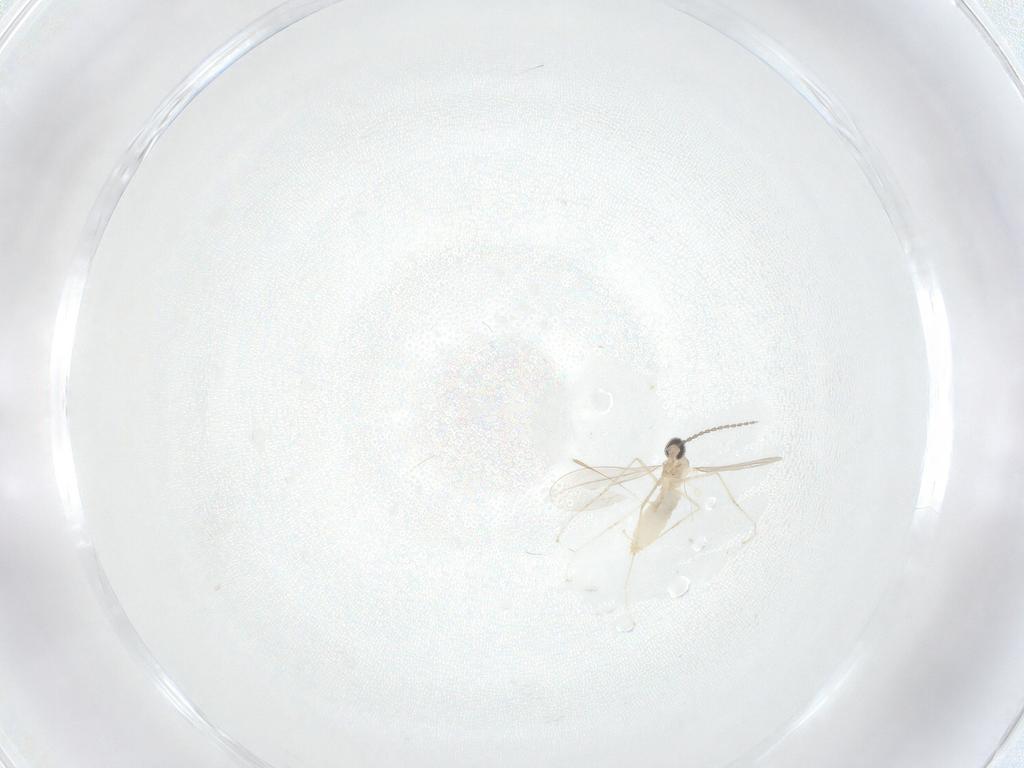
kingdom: Animalia
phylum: Arthropoda
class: Insecta
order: Diptera
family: Cecidomyiidae
